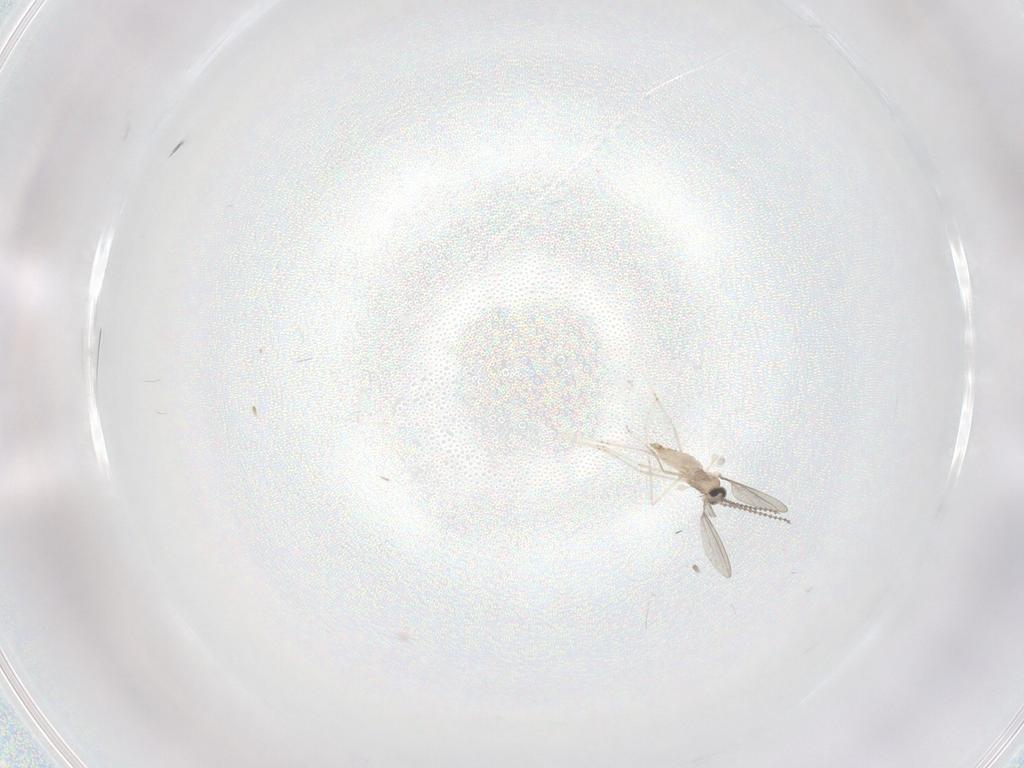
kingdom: Animalia
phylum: Arthropoda
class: Insecta
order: Diptera
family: Cecidomyiidae
